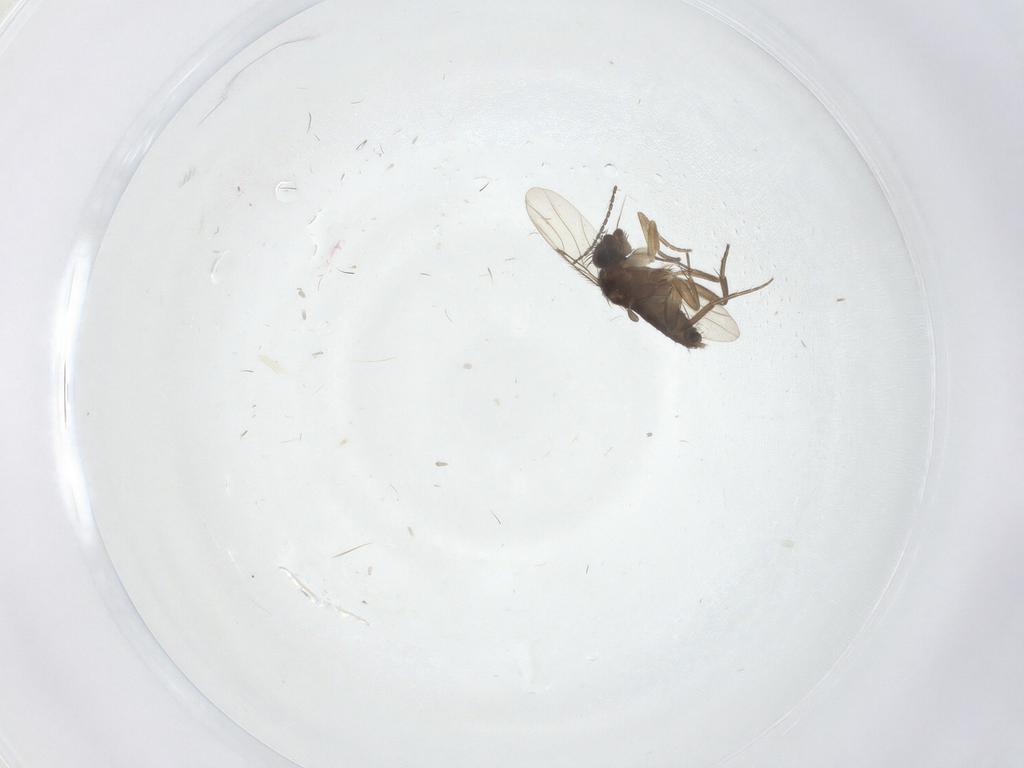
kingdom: Animalia
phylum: Arthropoda
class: Insecta
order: Diptera
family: Phoridae
